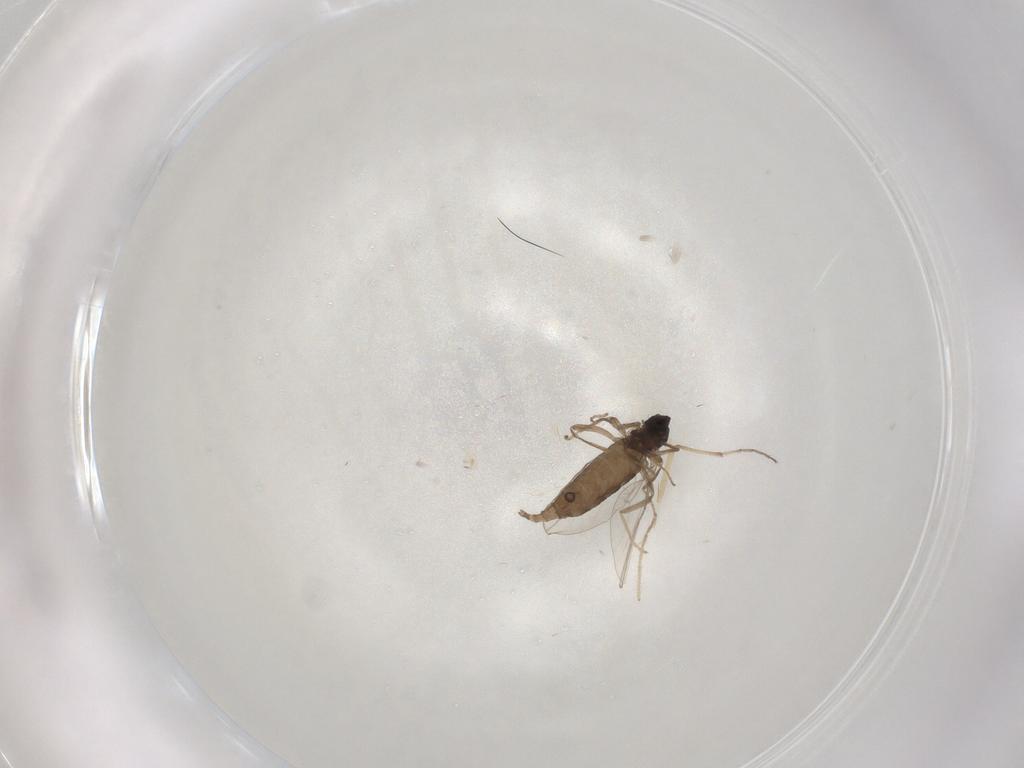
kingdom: Animalia
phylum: Arthropoda
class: Insecta
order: Diptera
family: Cecidomyiidae
